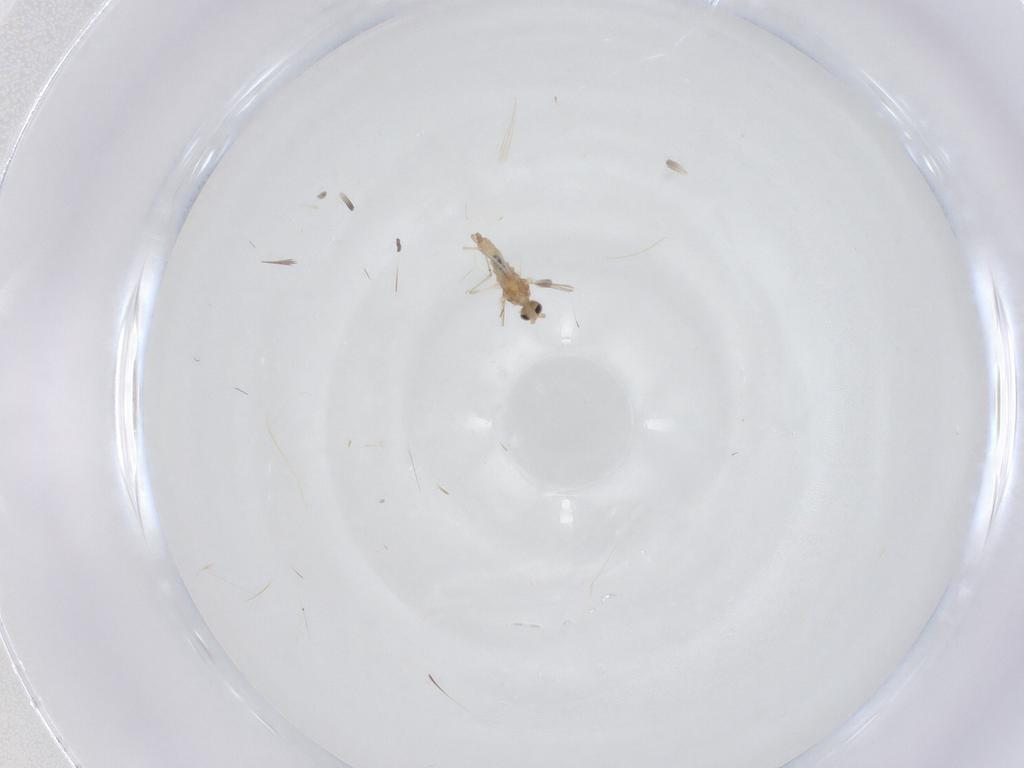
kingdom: Animalia
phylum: Arthropoda
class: Insecta
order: Diptera
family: Cecidomyiidae
